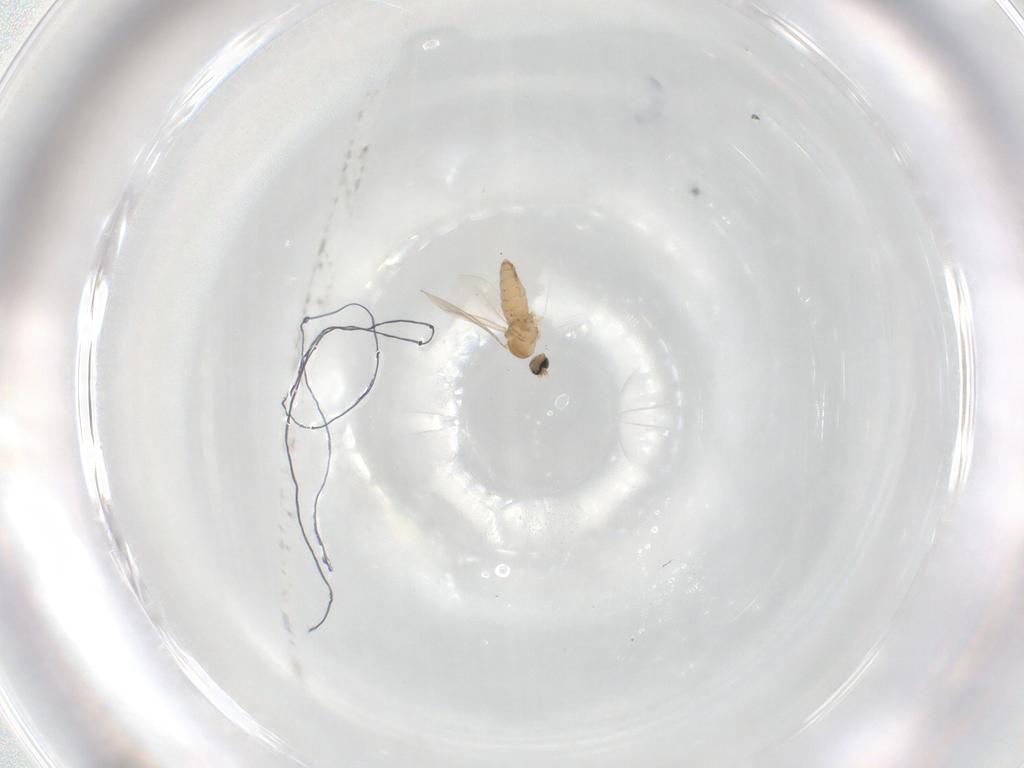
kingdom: Animalia
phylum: Arthropoda
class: Insecta
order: Diptera
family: Cecidomyiidae
